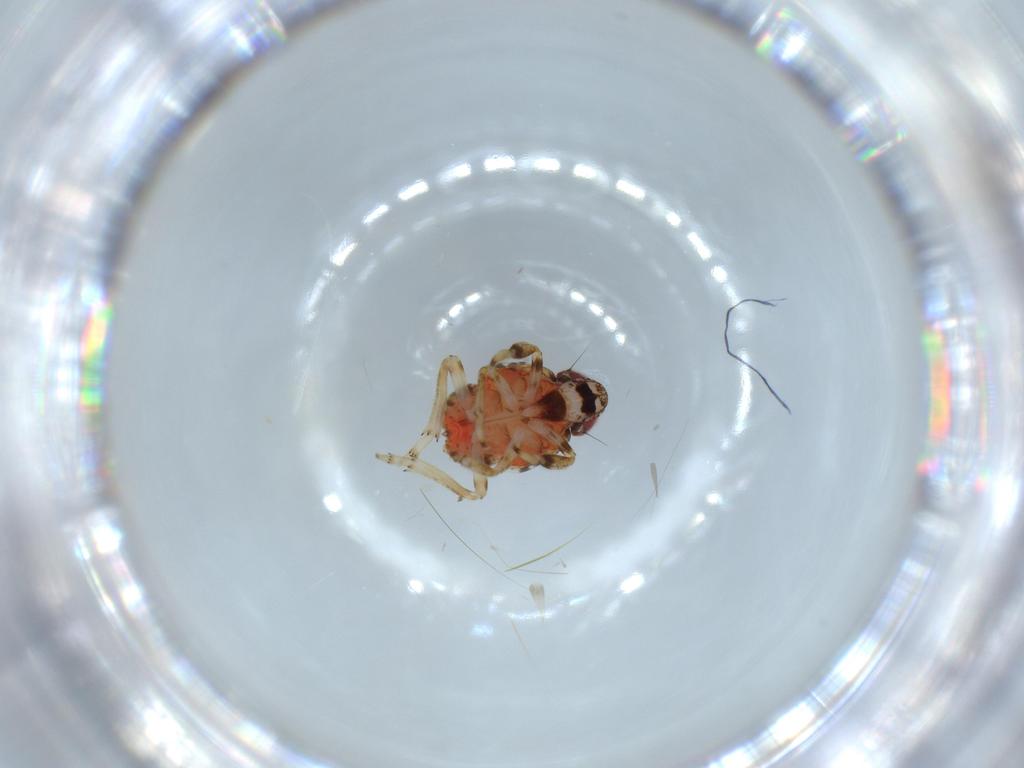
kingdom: Animalia
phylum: Arthropoda
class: Insecta
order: Hemiptera
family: Issidae
